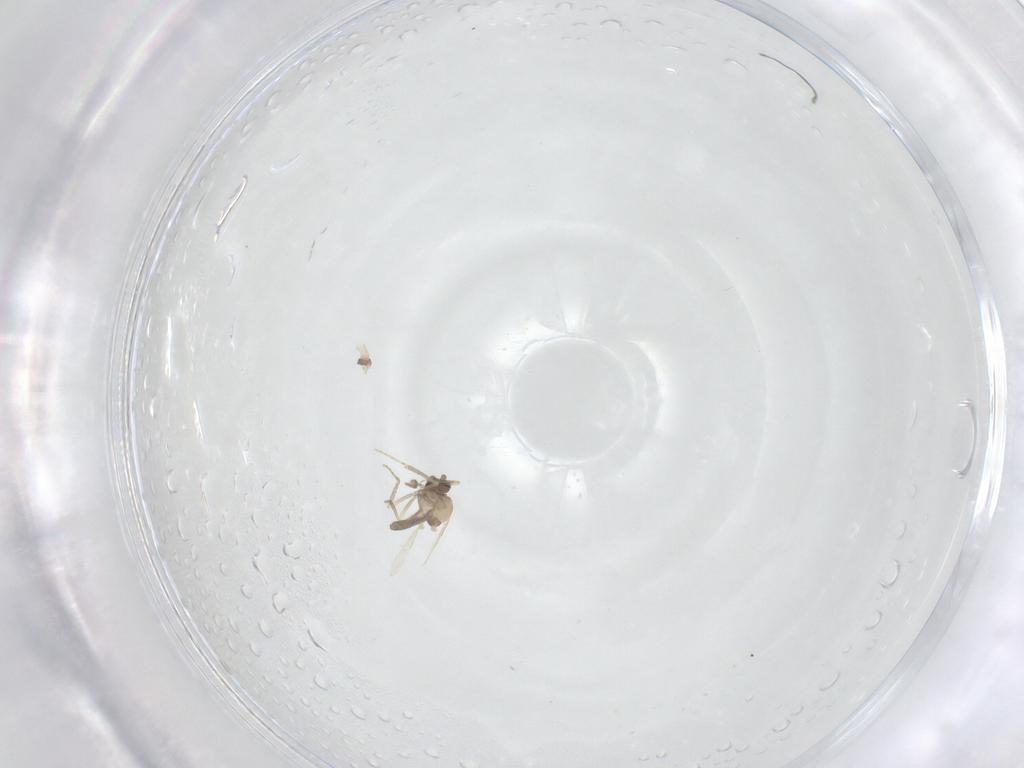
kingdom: Animalia
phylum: Arthropoda
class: Insecta
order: Diptera
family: Cecidomyiidae
